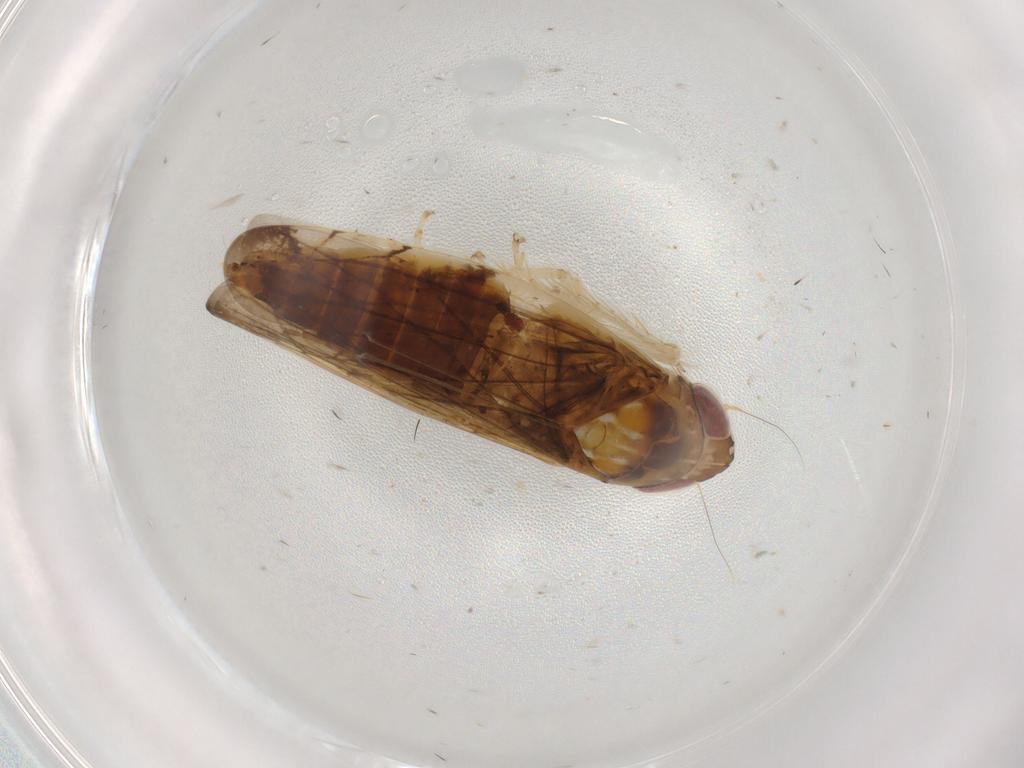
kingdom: Animalia
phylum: Arthropoda
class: Insecta
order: Hemiptera
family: Cicadellidae
